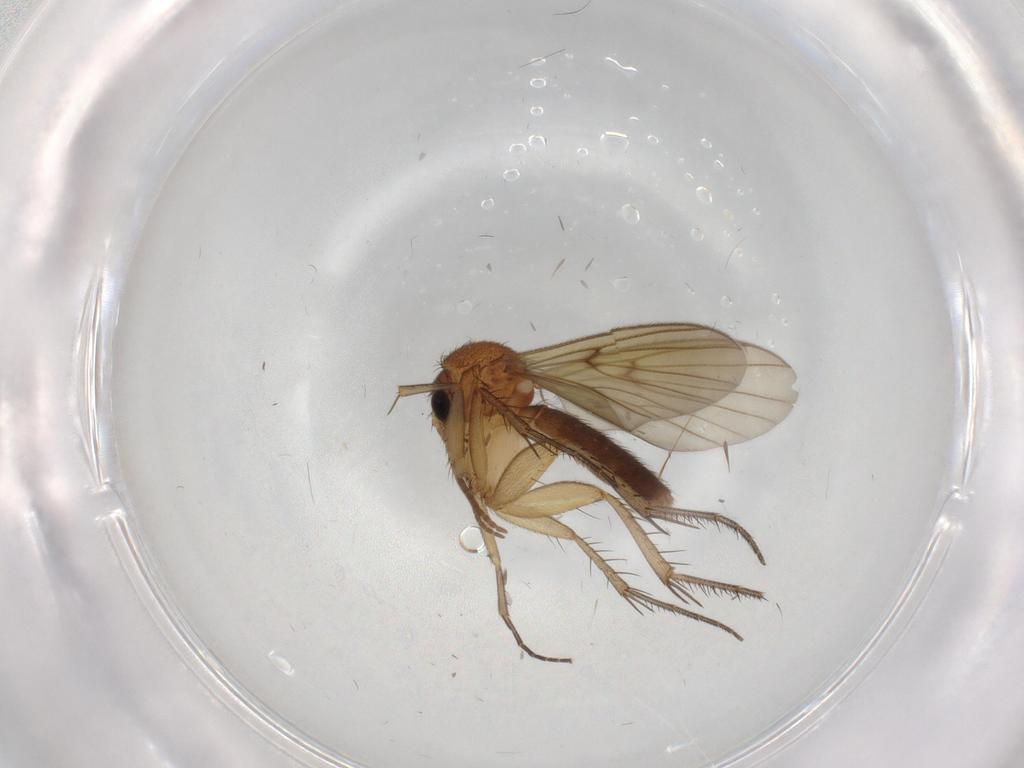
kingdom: Animalia
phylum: Arthropoda
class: Insecta
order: Diptera
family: Mycetophilidae
